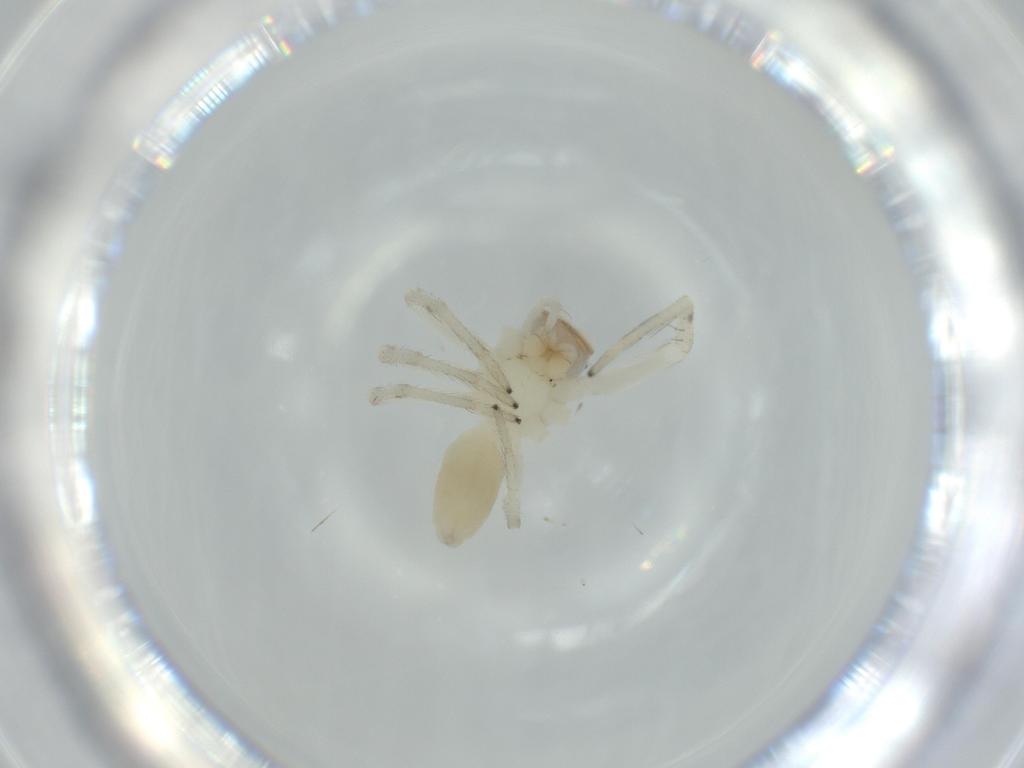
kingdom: Animalia
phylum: Arthropoda
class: Arachnida
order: Araneae
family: Salticidae
